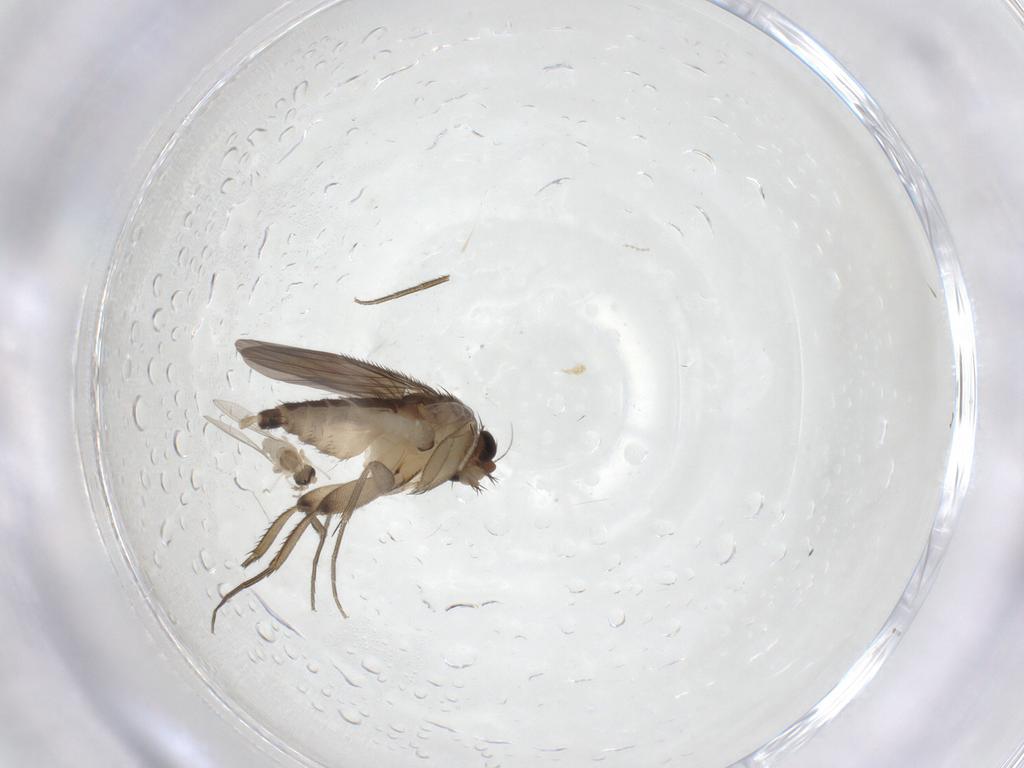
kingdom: Animalia
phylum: Arthropoda
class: Insecta
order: Diptera
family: Phoridae
